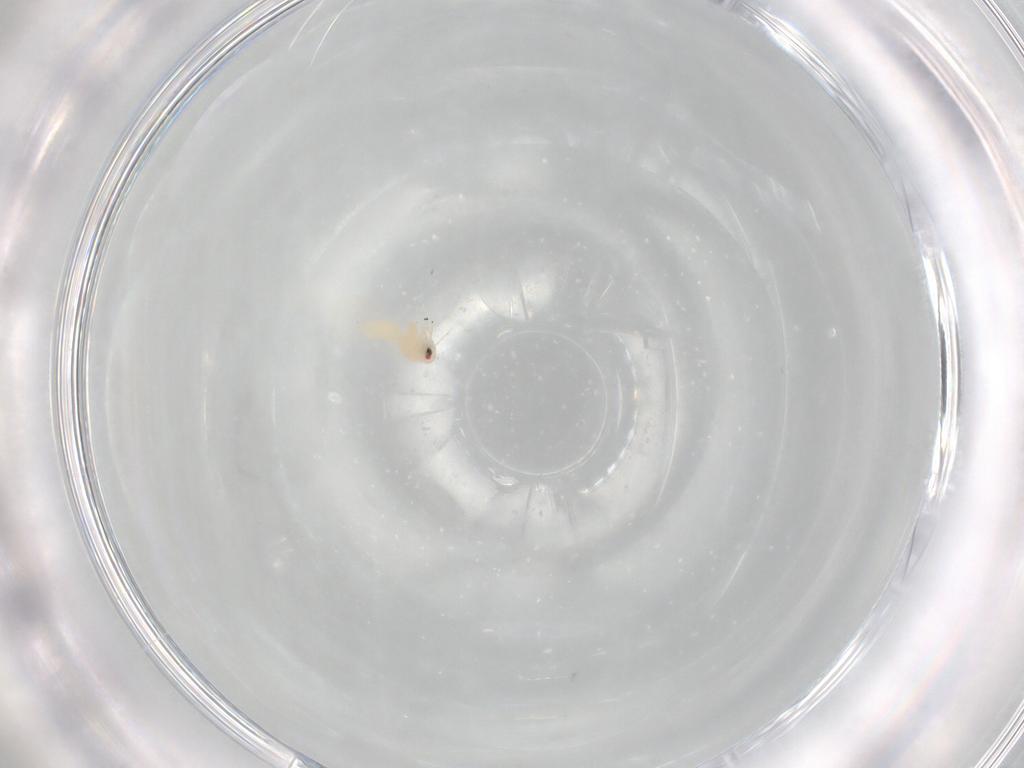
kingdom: Animalia
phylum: Arthropoda
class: Insecta
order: Hemiptera
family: Aleyrodidae
